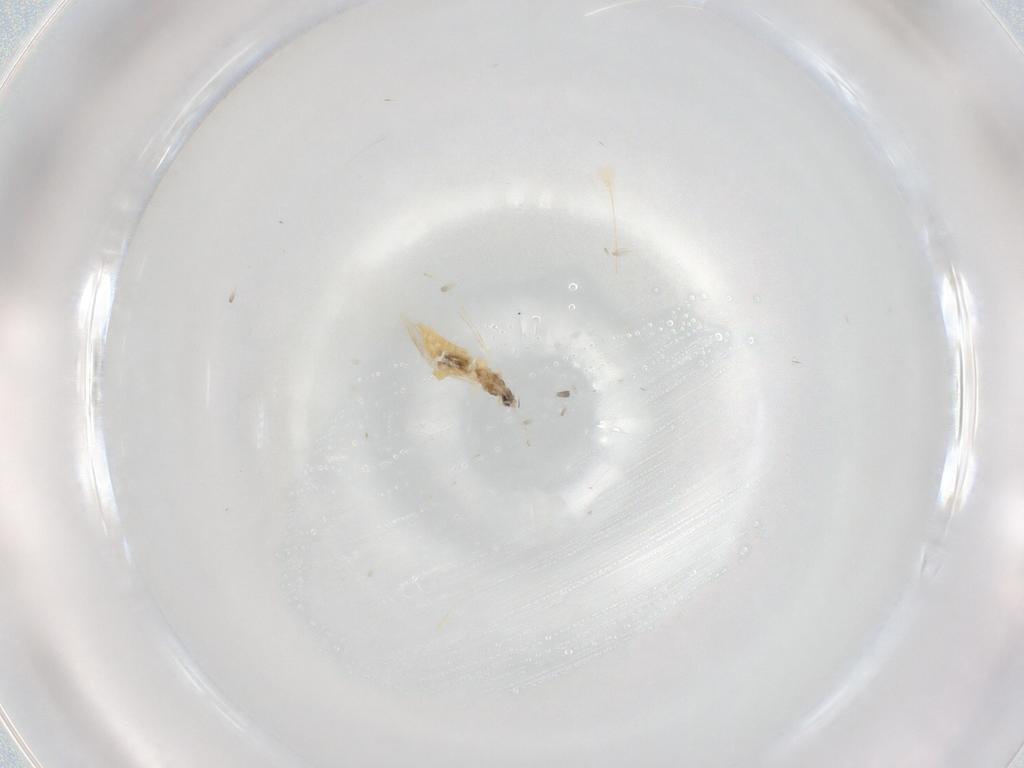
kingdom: Animalia
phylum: Arthropoda
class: Insecta
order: Diptera
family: Cecidomyiidae
